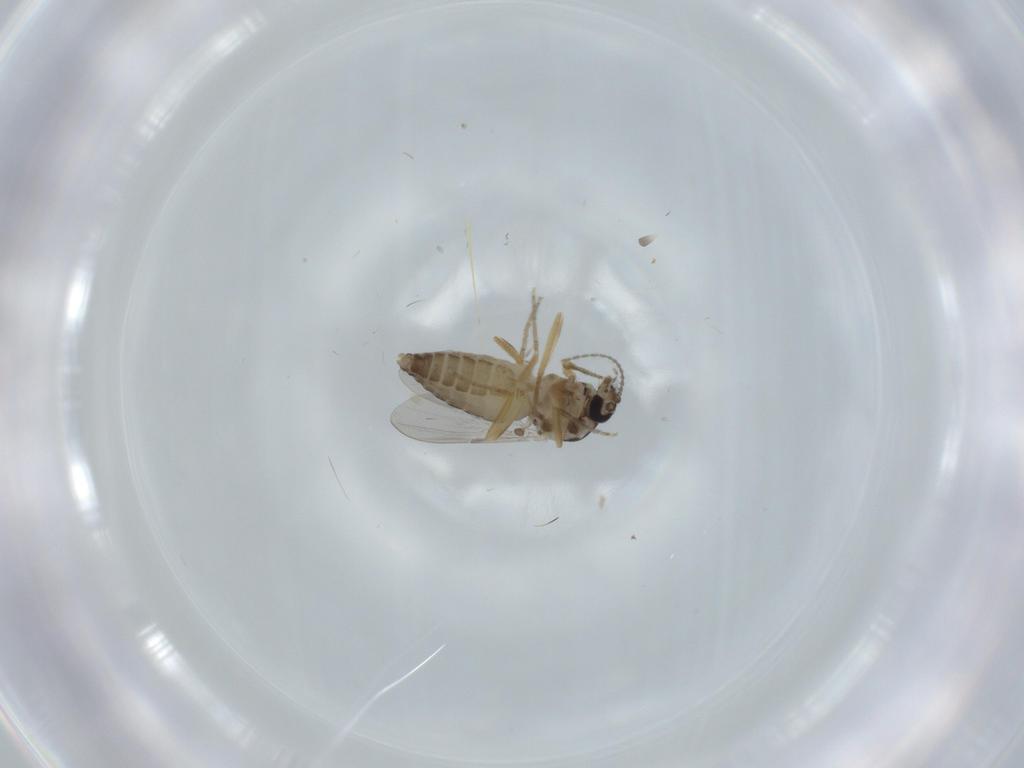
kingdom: Animalia
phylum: Arthropoda
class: Insecta
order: Diptera
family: Ceratopogonidae
